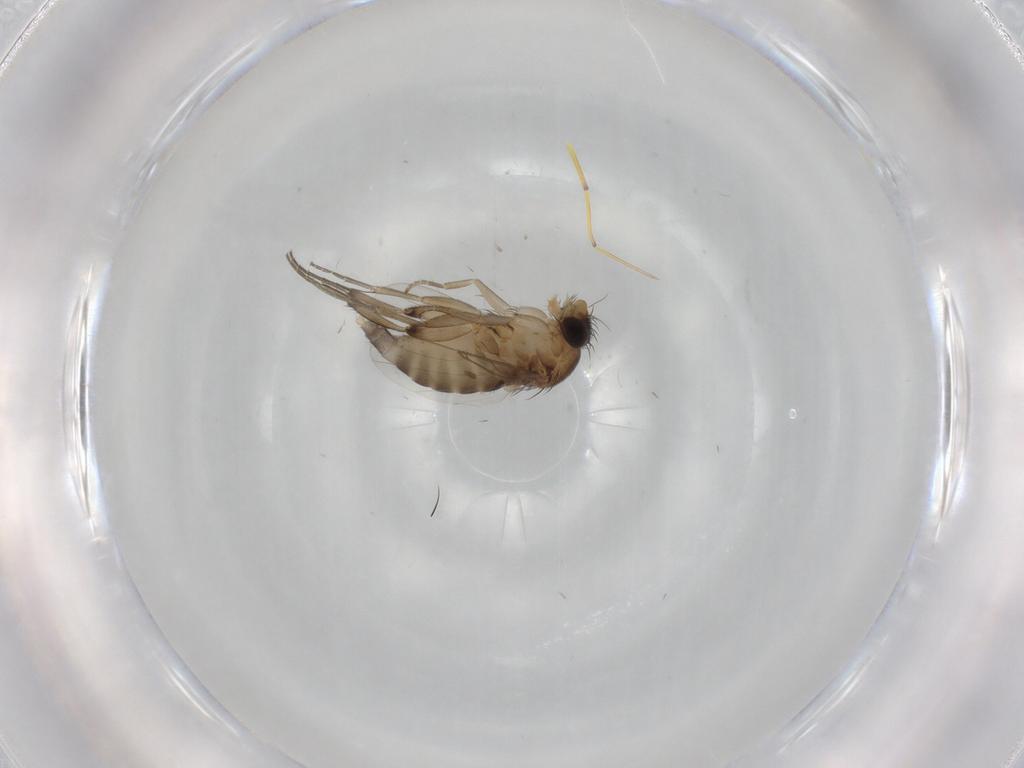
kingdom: Animalia
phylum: Arthropoda
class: Insecta
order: Diptera
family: Phoridae
